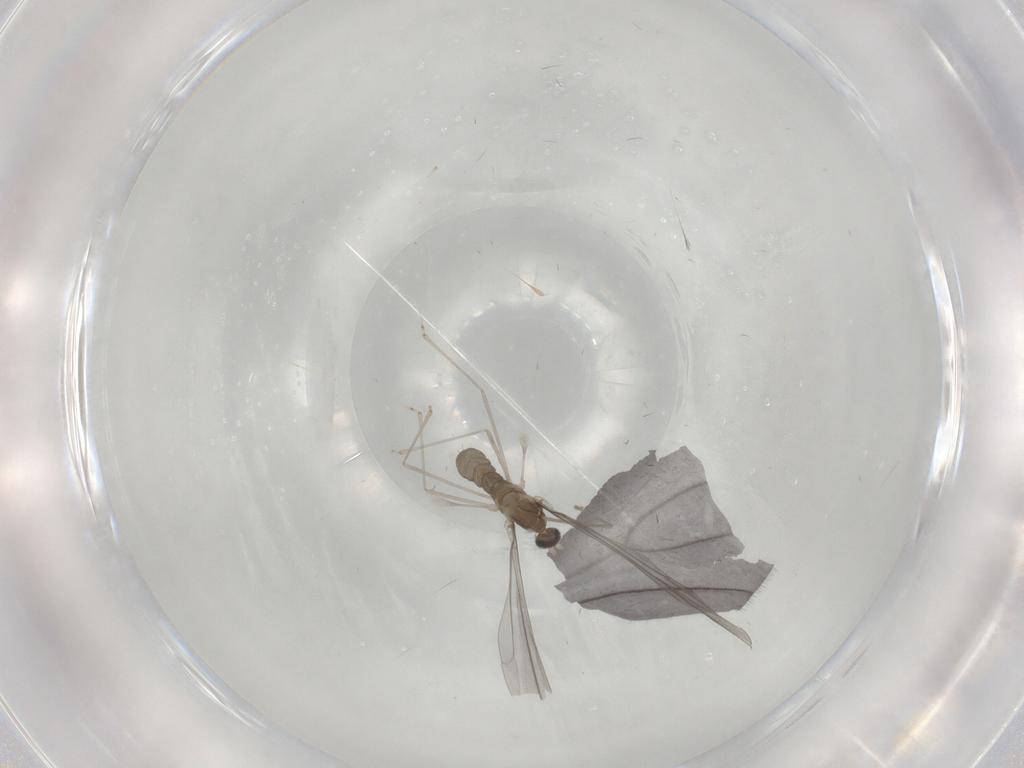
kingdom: Animalia
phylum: Arthropoda
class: Insecta
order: Diptera
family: Cecidomyiidae
